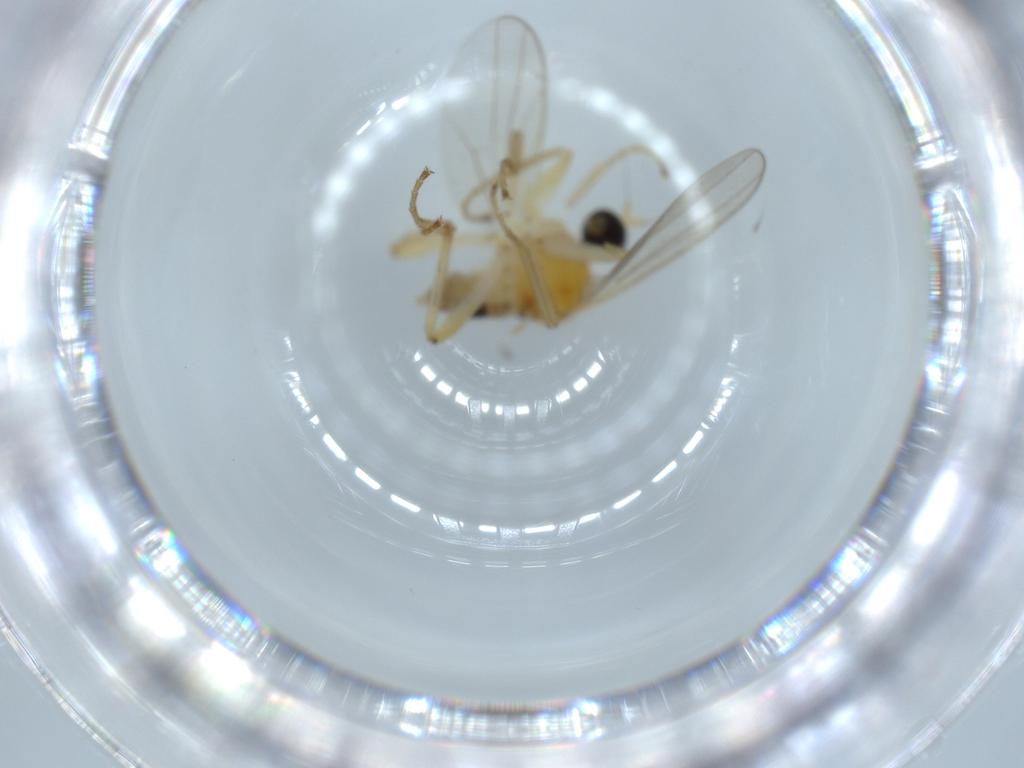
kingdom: Animalia
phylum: Arthropoda
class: Insecta
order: Diptera
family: Hybotidae
